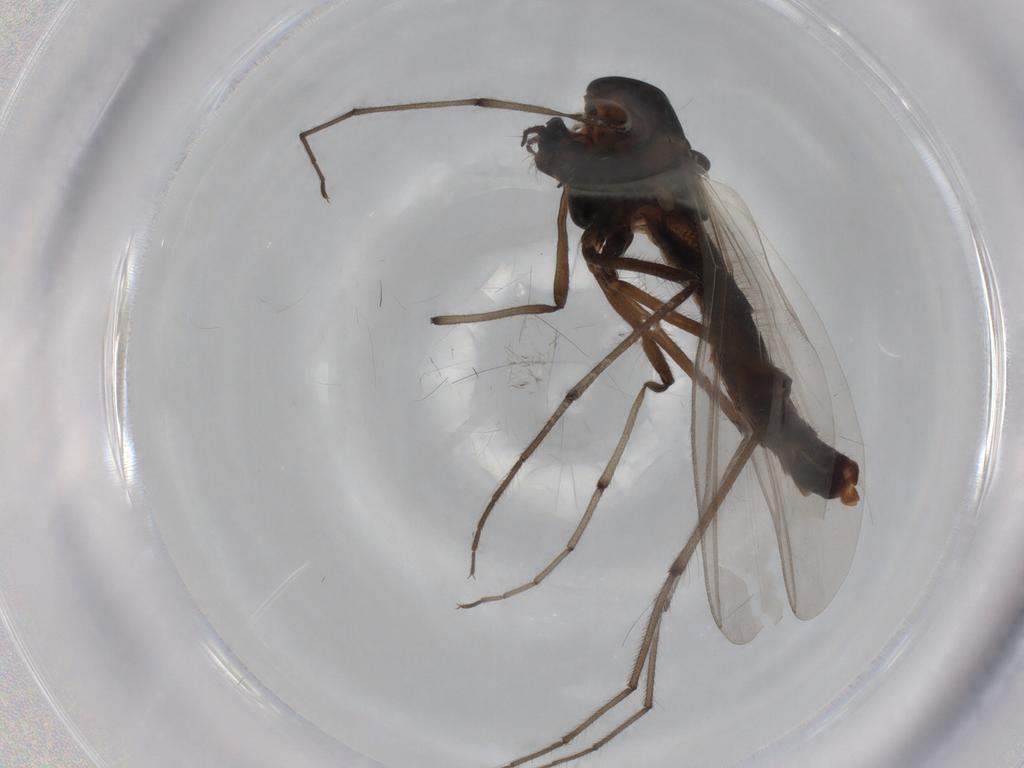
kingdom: Animalia
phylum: Arthropoda
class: Insecta
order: Diptera
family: Chironomidae
